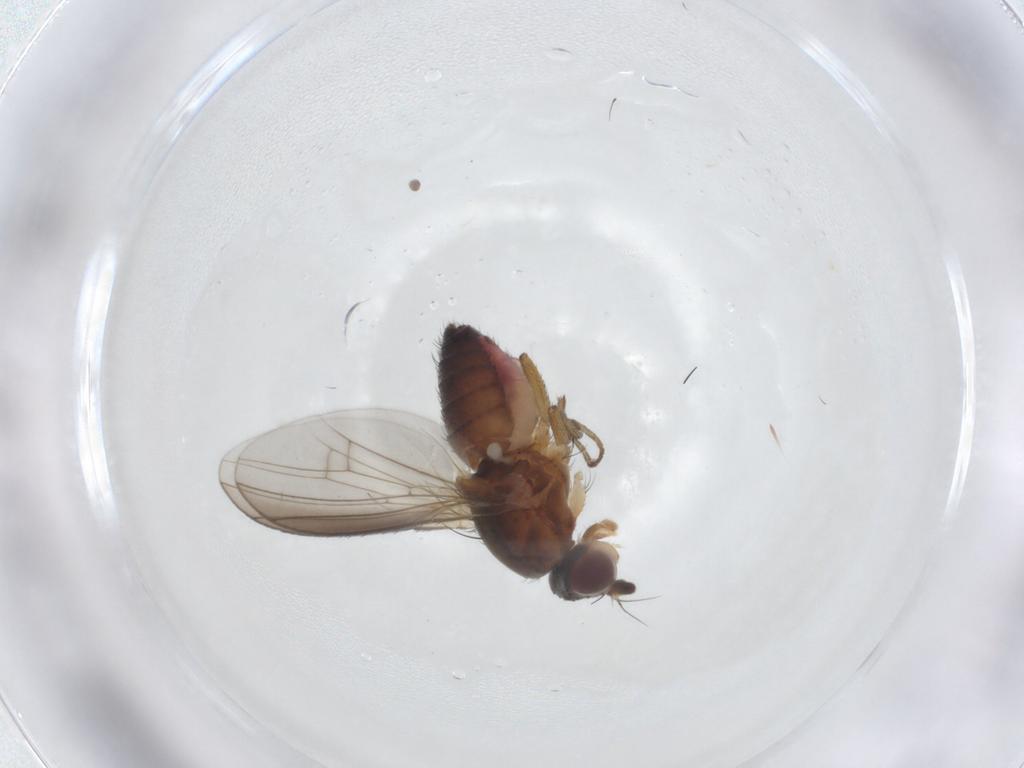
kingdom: Animalia
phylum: Arthropoda
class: Insecta
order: Diptera
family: Heleomyzidae
